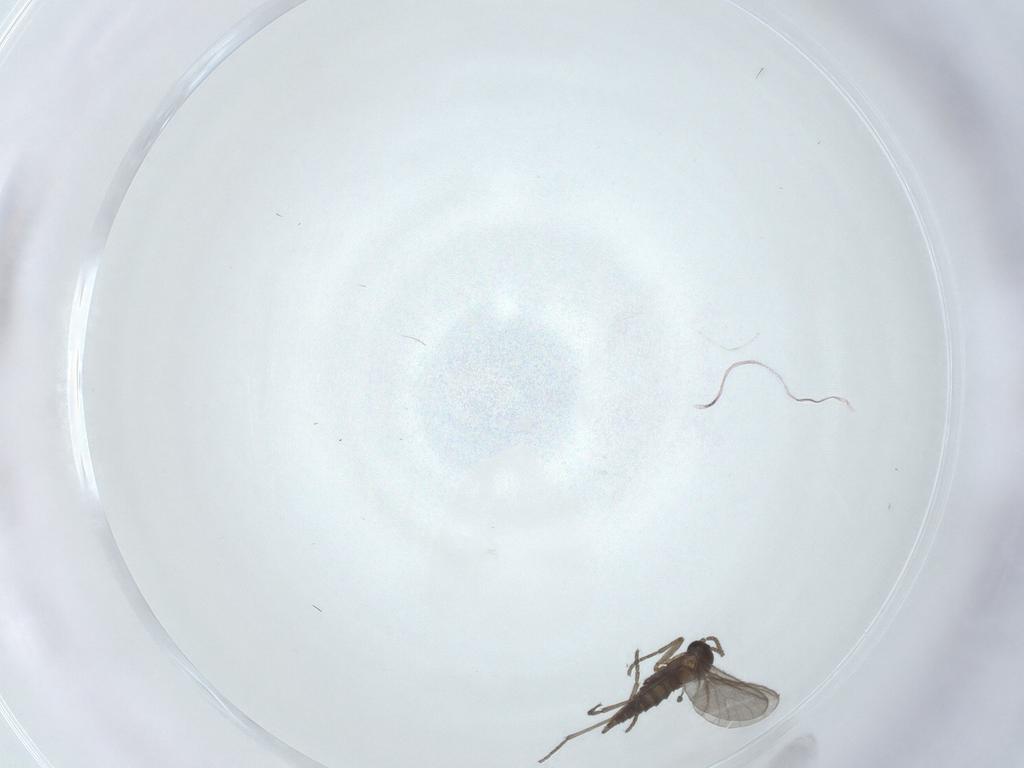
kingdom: Animalia
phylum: Arthropoda
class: Insecta
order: Diptera
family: Sciaridae
